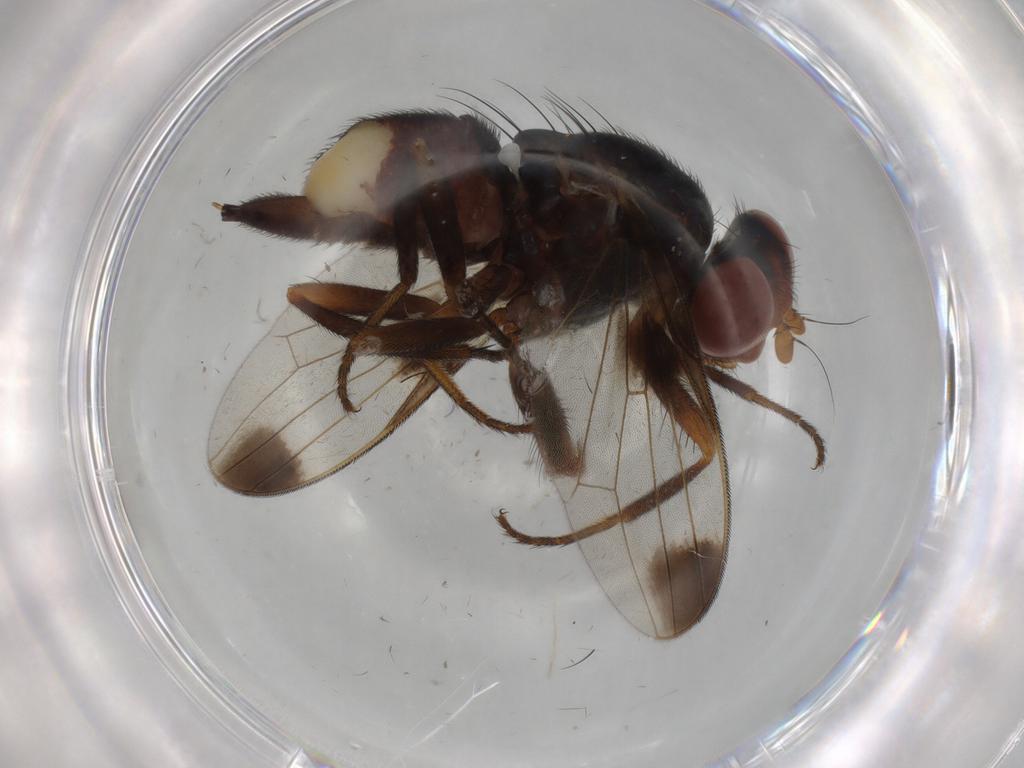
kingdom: Animalia
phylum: Arthropoda
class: Insecta
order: Diptera
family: Ulidiidae
